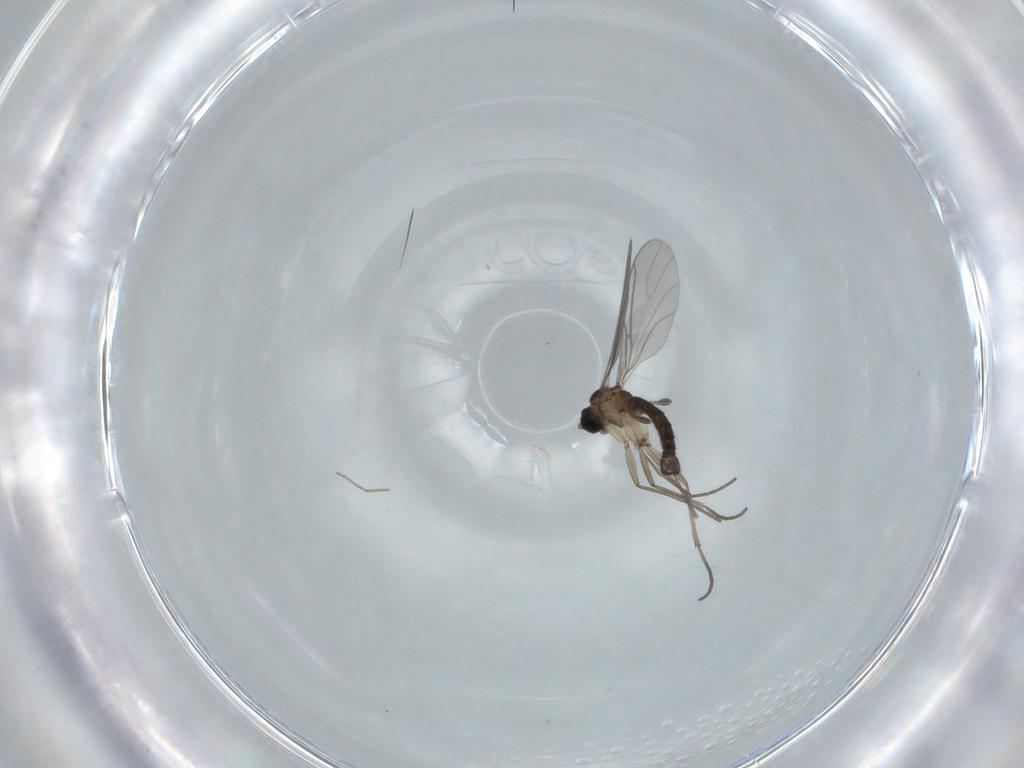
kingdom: Animalia
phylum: Arthropoda
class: Insecta
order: Diptera
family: Sciaridae
